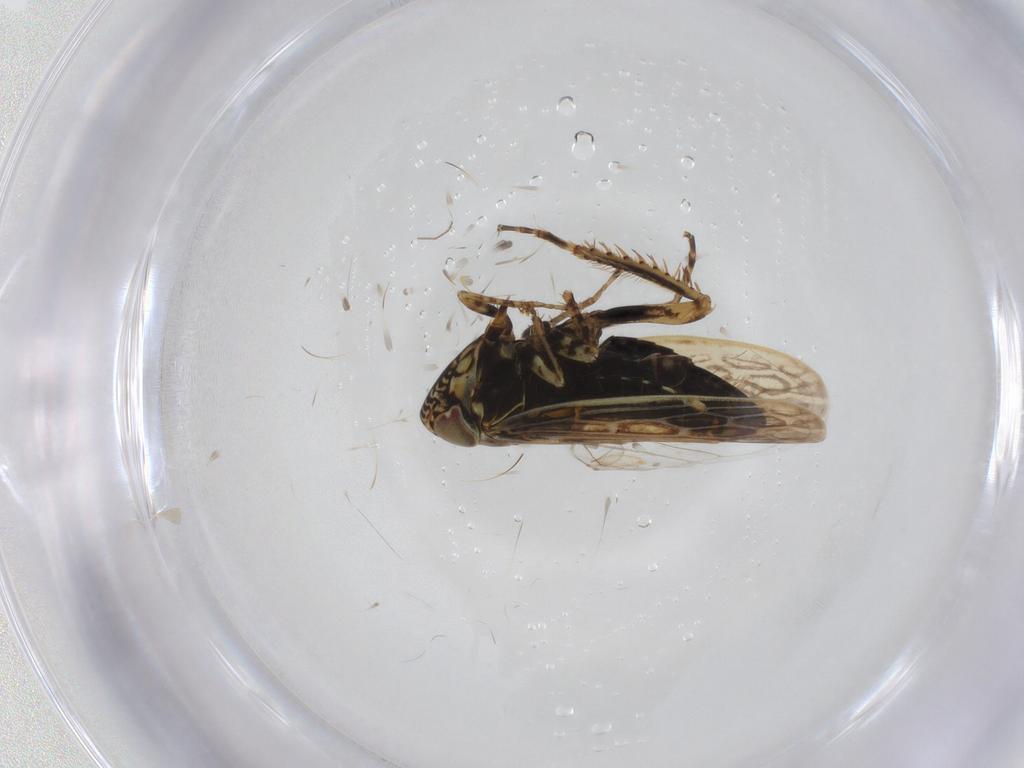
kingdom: Animalia
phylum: Arthropoda
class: Insecta
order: Hemiptera
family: Cicadellidae
